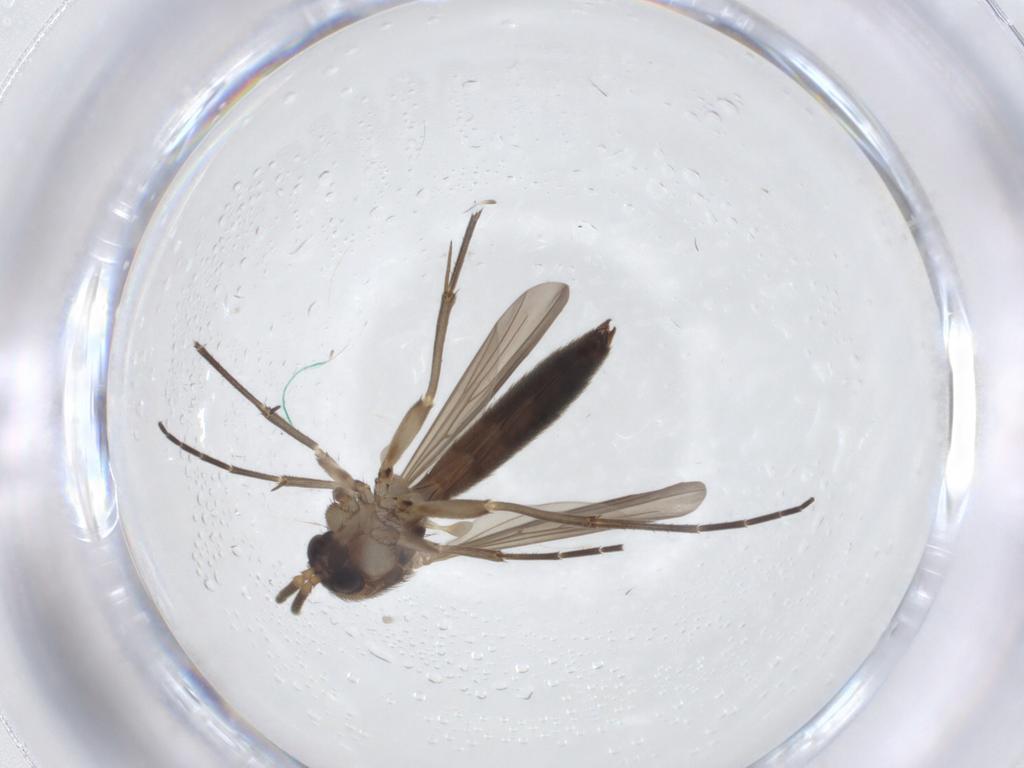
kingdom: Animalia
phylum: Arthropoda
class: Insecta
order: Diptera
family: Mycetophilidae
